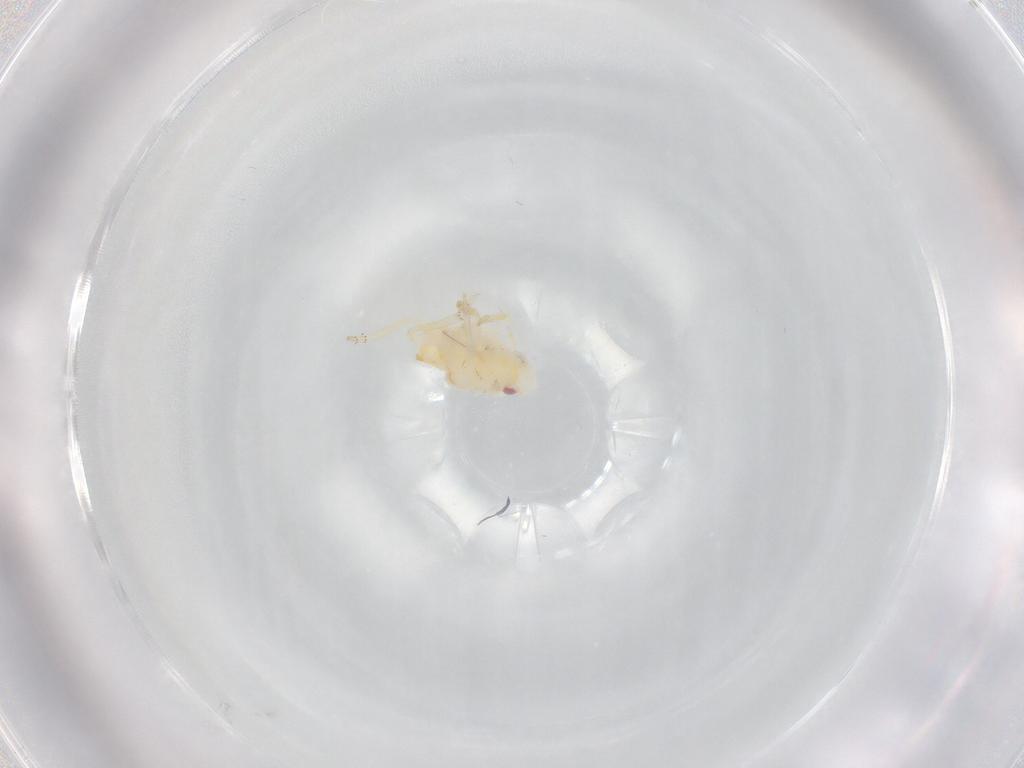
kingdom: Animalia
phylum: Arthropoda
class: Insecta
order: Hemiptera
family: Flatidae
